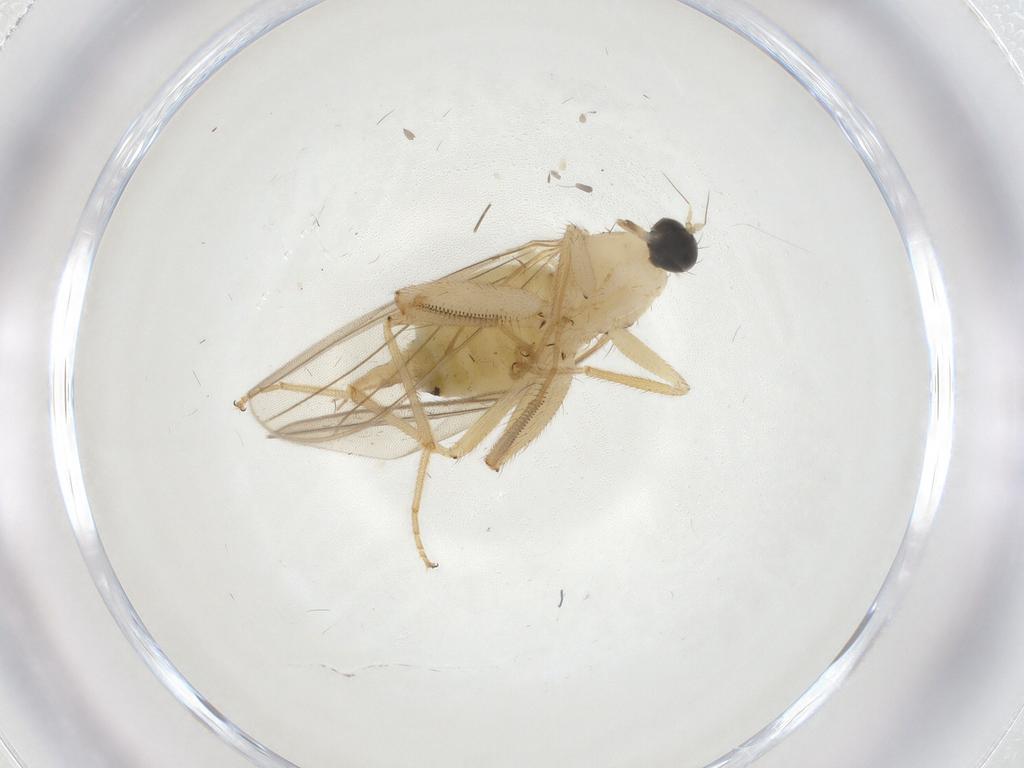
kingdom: Animalia
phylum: Arthropoda
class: Insecta
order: Diptera
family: Hybotidae
